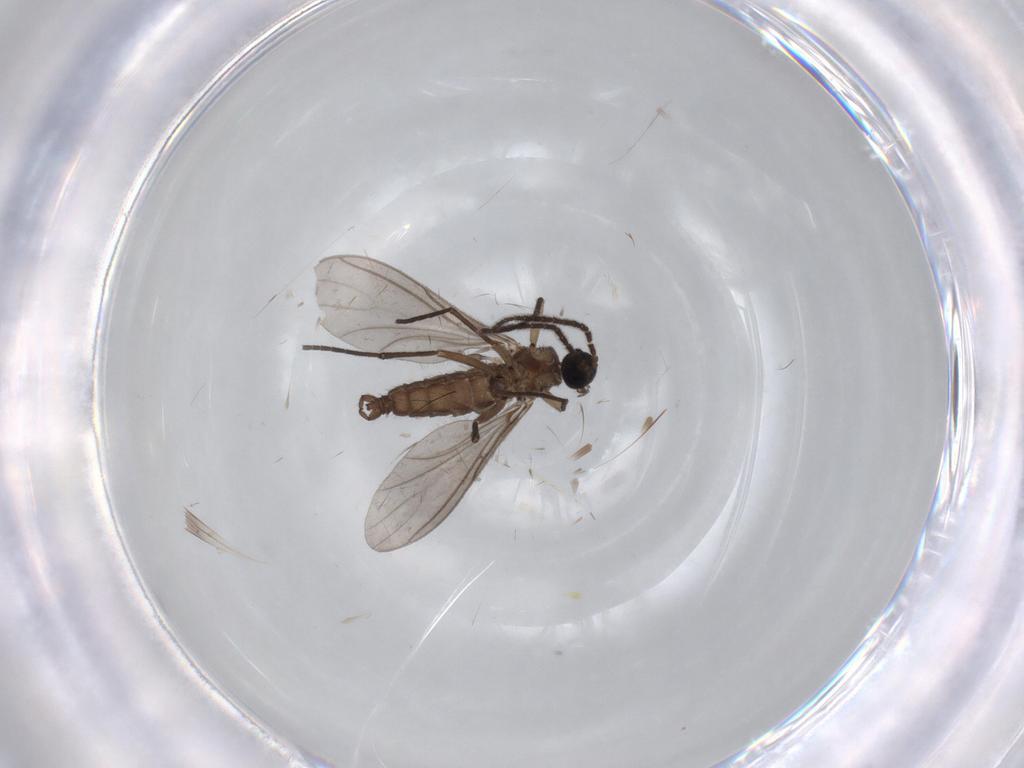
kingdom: Animalia
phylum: Arthropoda
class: Insecta
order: Diptera
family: Sciaridae
